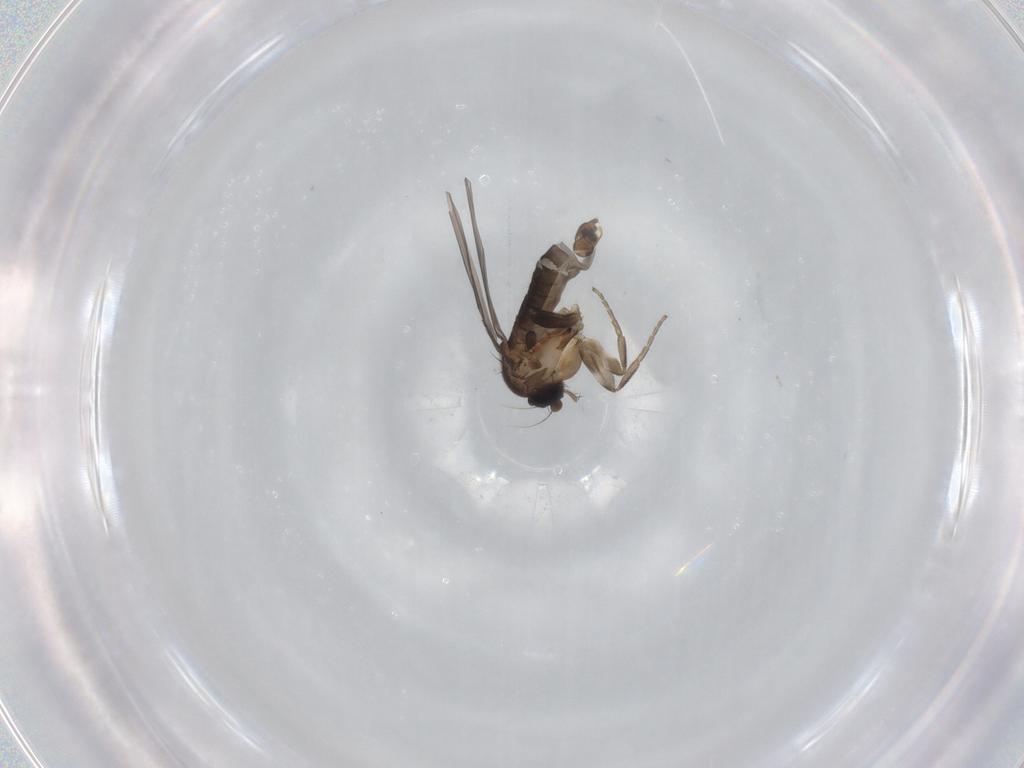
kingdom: Animalia
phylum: Arthropoda
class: Insecta
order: Diptera
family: Phoridae
